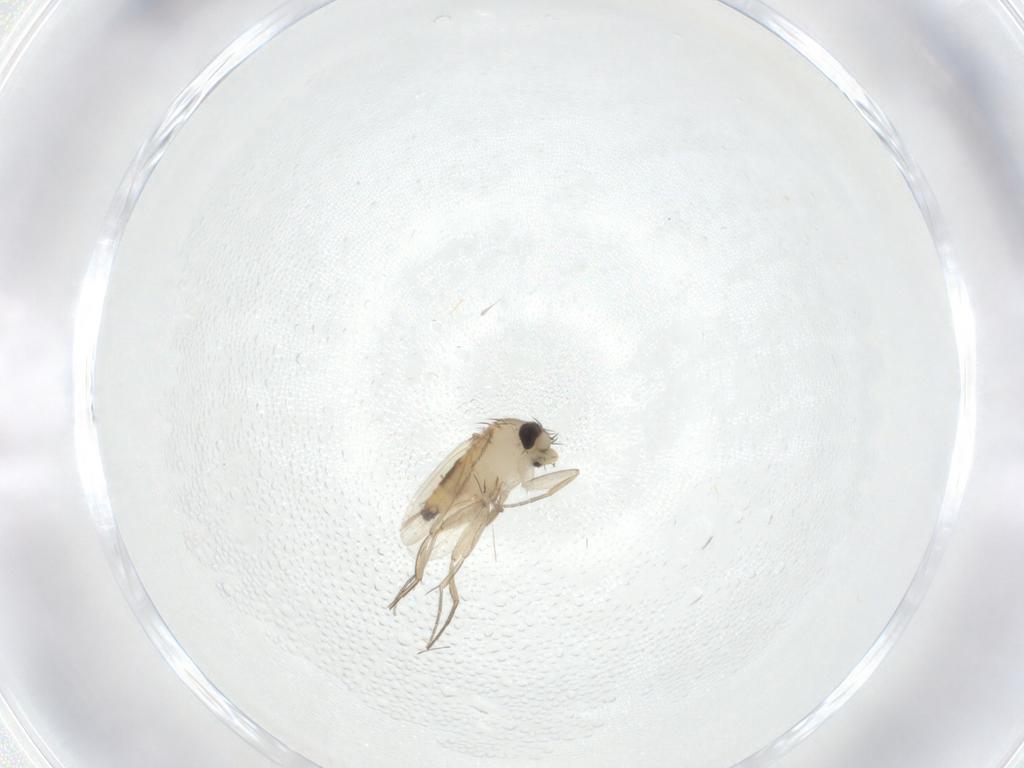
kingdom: Animalia
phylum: Arthropoda
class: Insecta
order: Diptera
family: Phoridae
